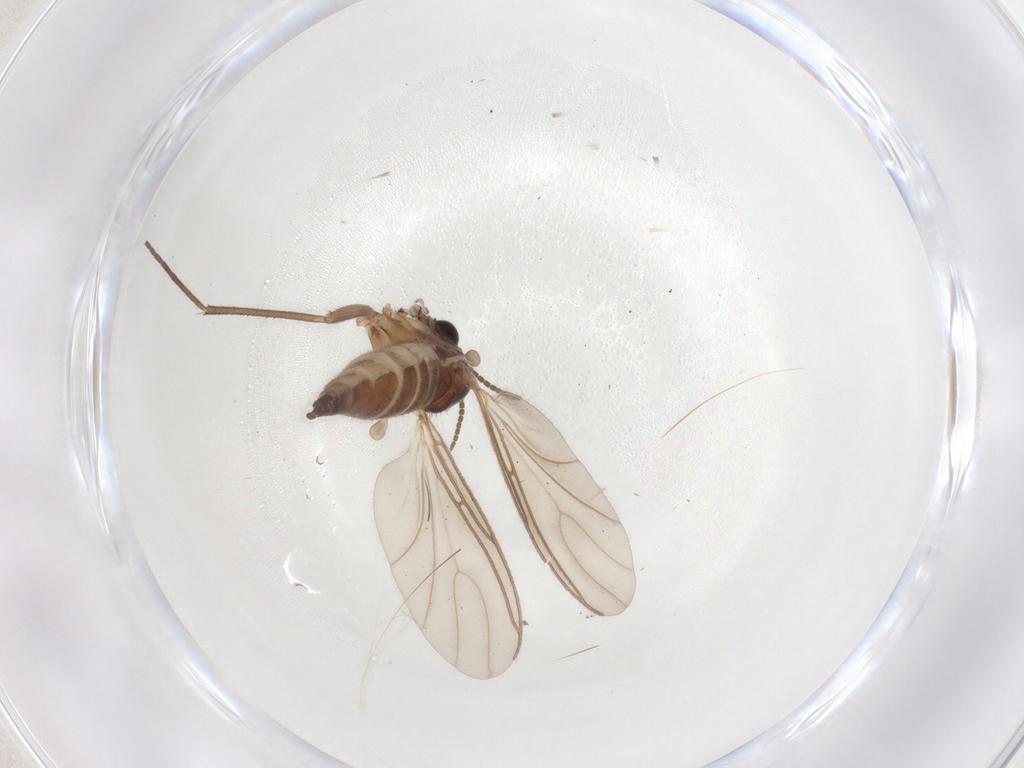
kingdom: Animalia
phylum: Arthropoda
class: Insecta
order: Diptera
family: Sciaridae
